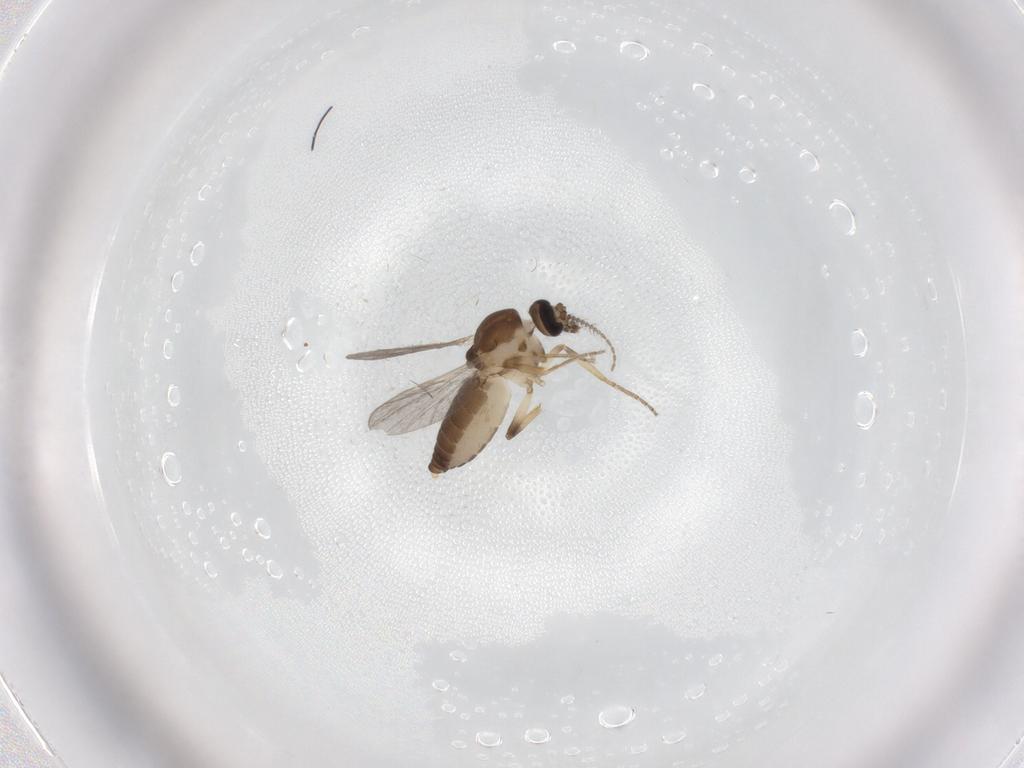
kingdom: Animalia
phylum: Arthropoda
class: Insecta
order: Diptera
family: Ceratopogonidae
